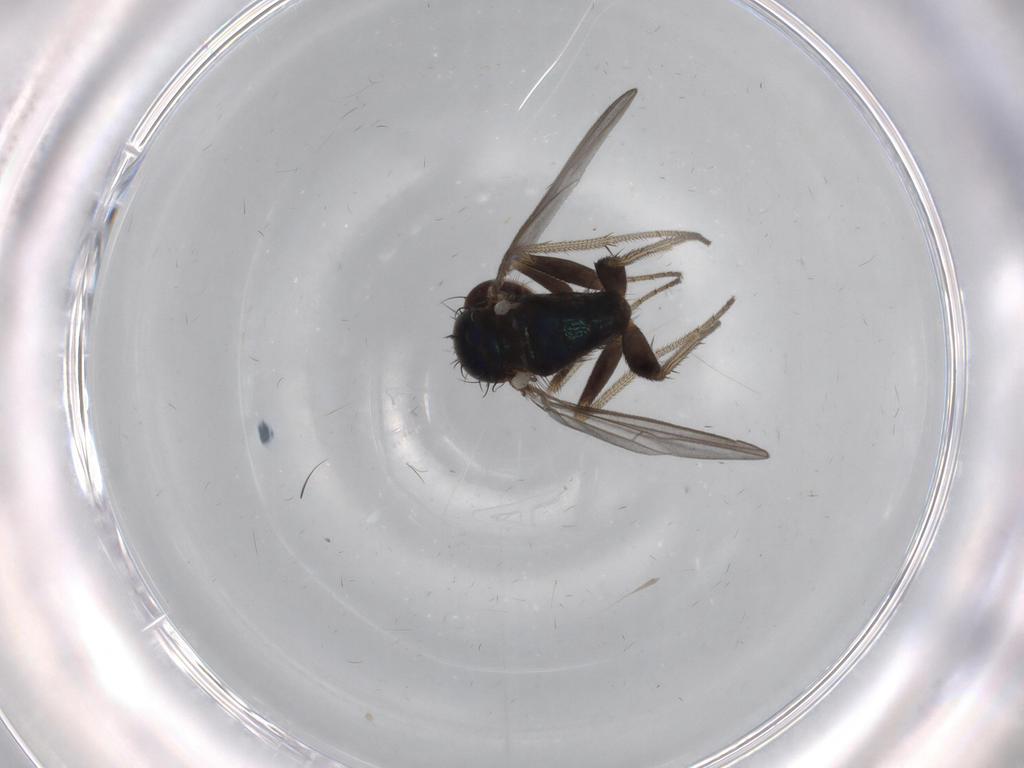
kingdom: Animalia
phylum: Arthropoda
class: Insecta
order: Diptera
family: Dolichopodidae
